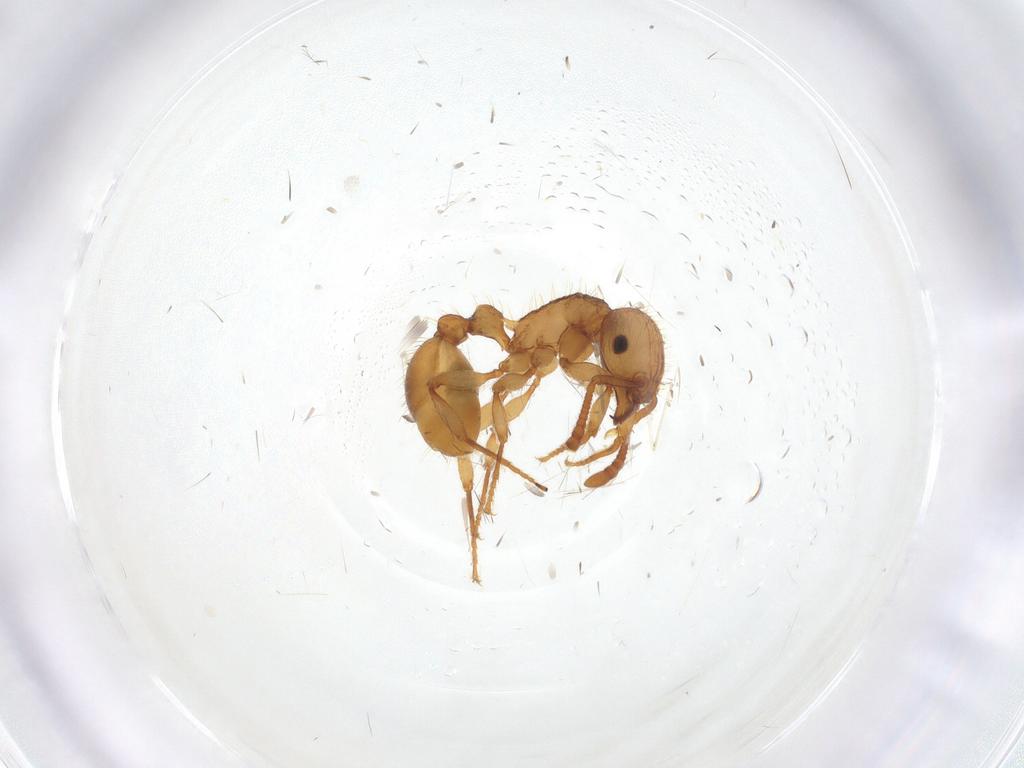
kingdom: Animalia
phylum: Arthropoda
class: Insecta
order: Hymenoptera
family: Formicidae
